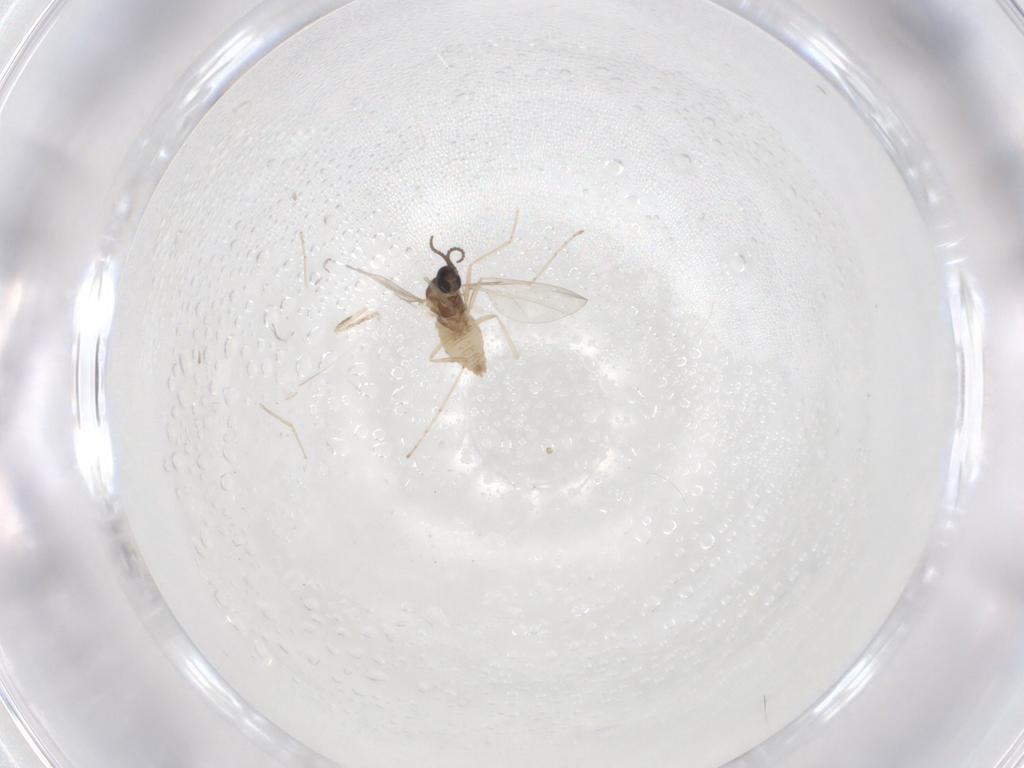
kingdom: Animalia
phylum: Arthropoda
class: Insecta
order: Diptera
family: Cecidomyiidae
